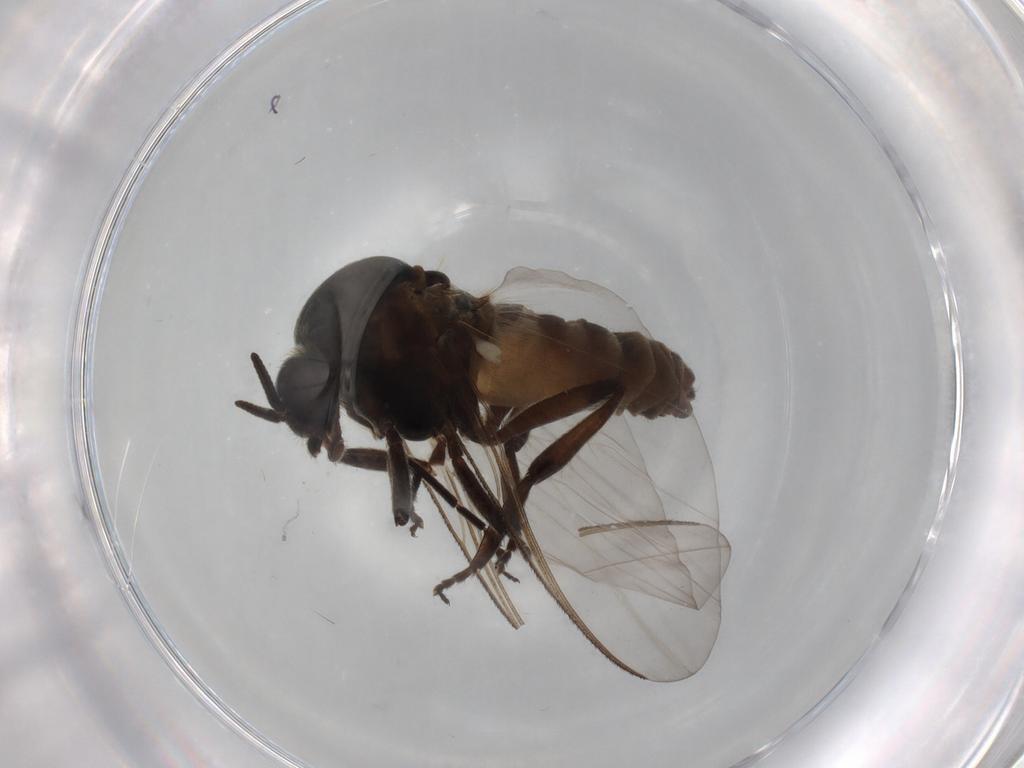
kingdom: Animalia
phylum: Arthropoda
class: Insecta
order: Diptera
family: Simuliidae
